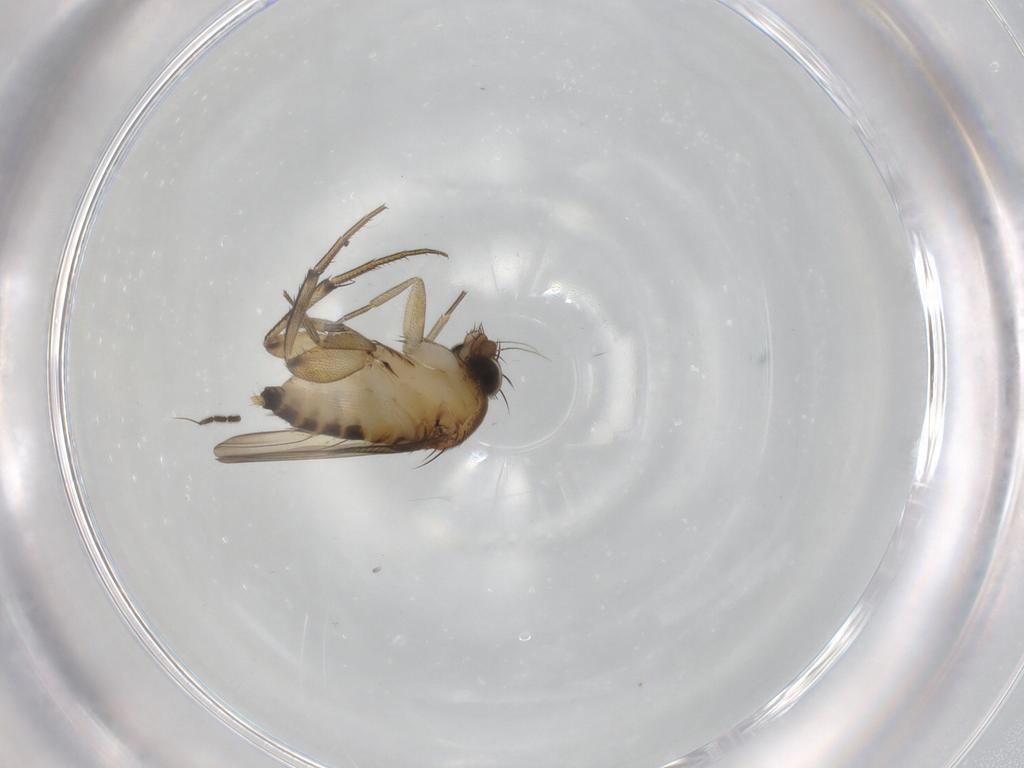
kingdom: Animalia
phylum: Arthropoda
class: Insecta
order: Diptera
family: Phoridae
